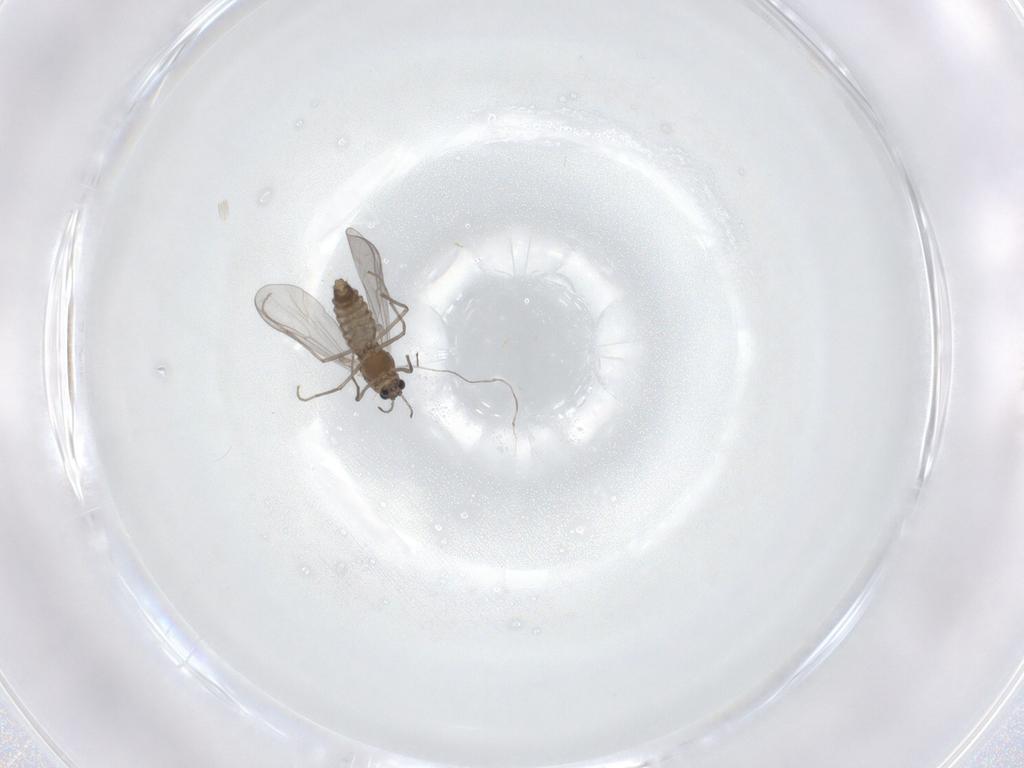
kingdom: Animalia
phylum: Arthropoda
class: Insecta
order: Diptera
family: Chironomidae
